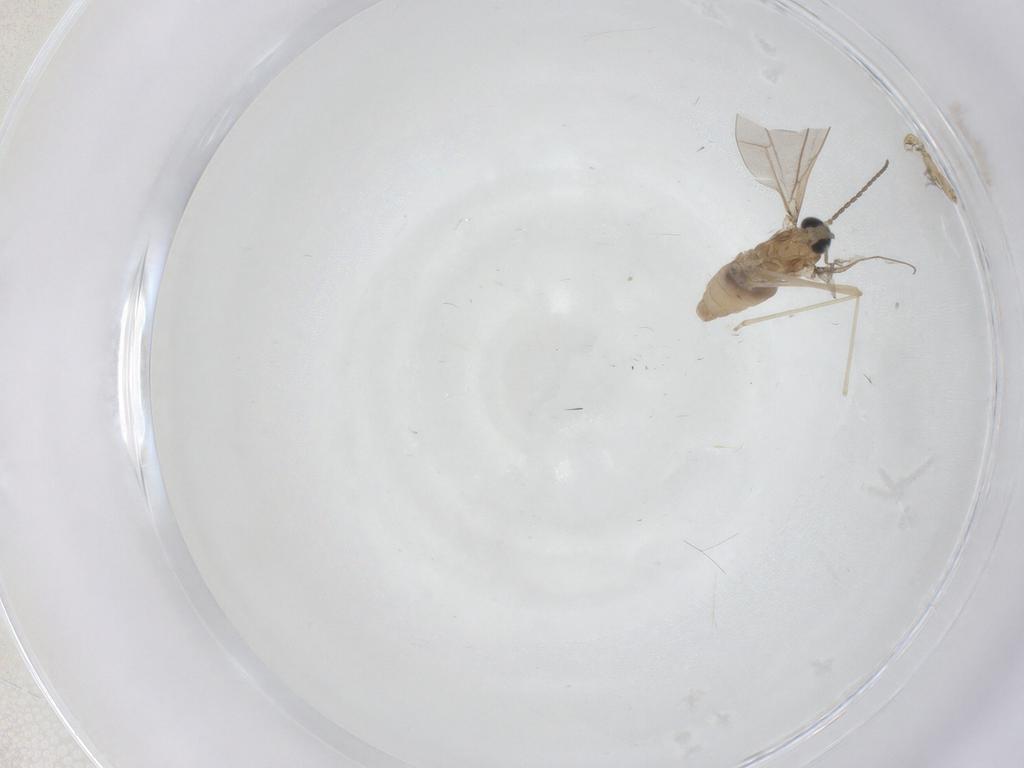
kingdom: Animalia
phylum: Arthropoda
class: Insecta
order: Diptera
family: Cecidomyiidae
